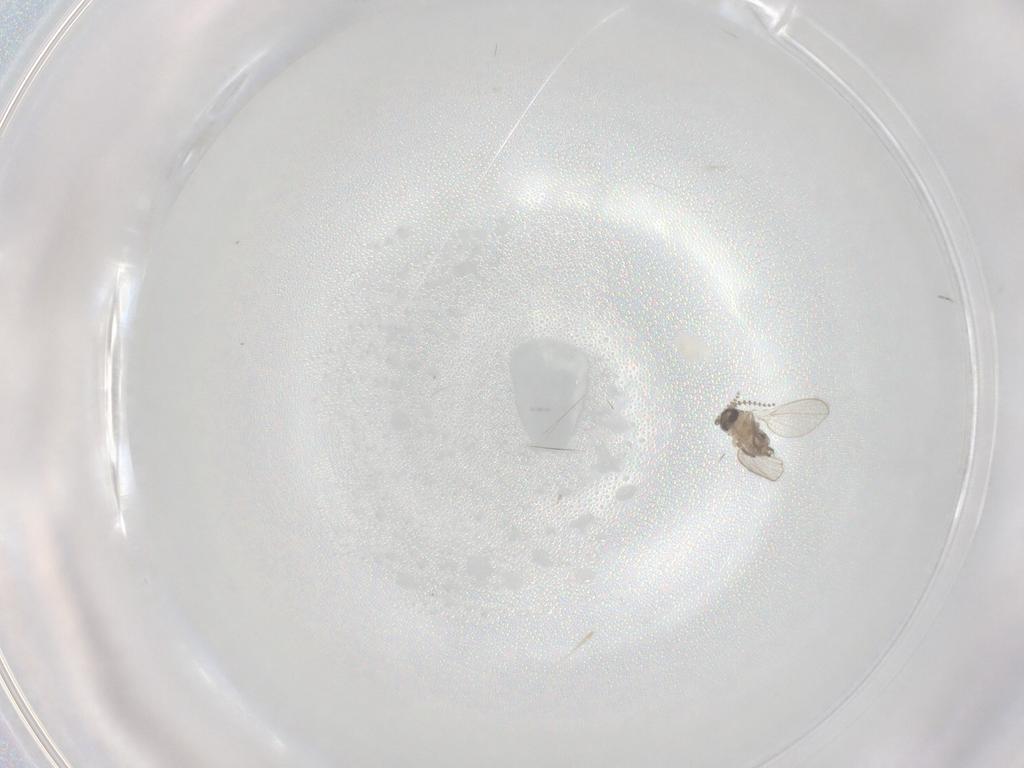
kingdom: Animalia
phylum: Arthropoda
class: Insecta
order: Diptera
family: Psychodidae
